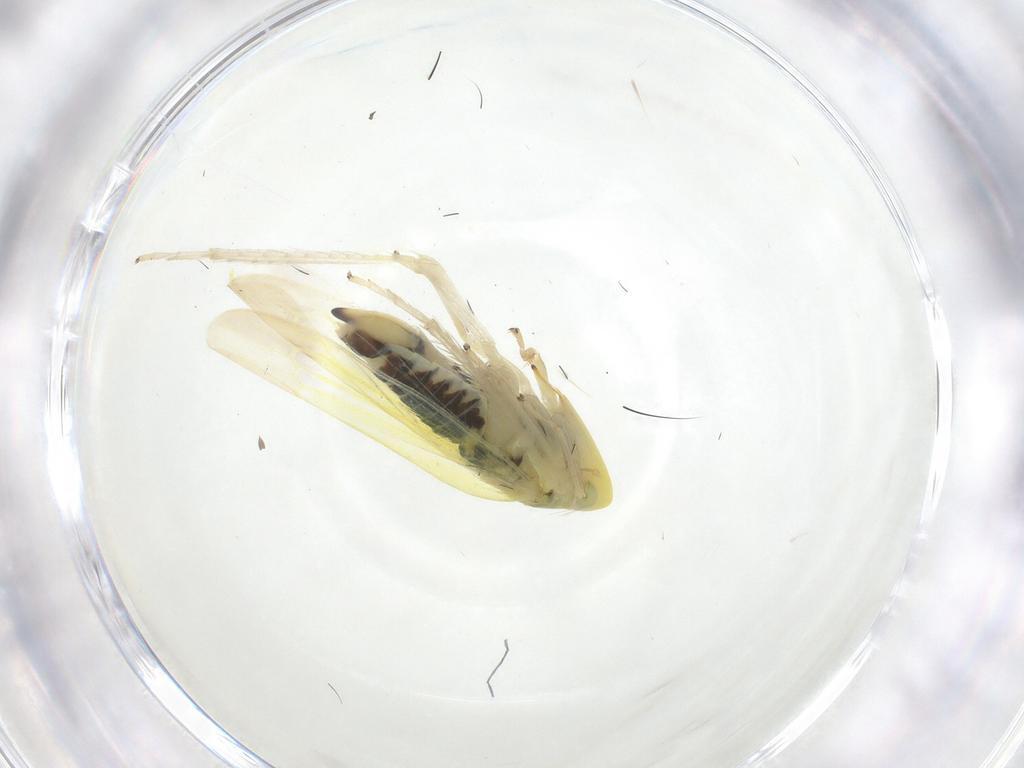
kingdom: Animalia
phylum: Arthropoda
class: Insecta
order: Hemiptera
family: Cicadellidae
